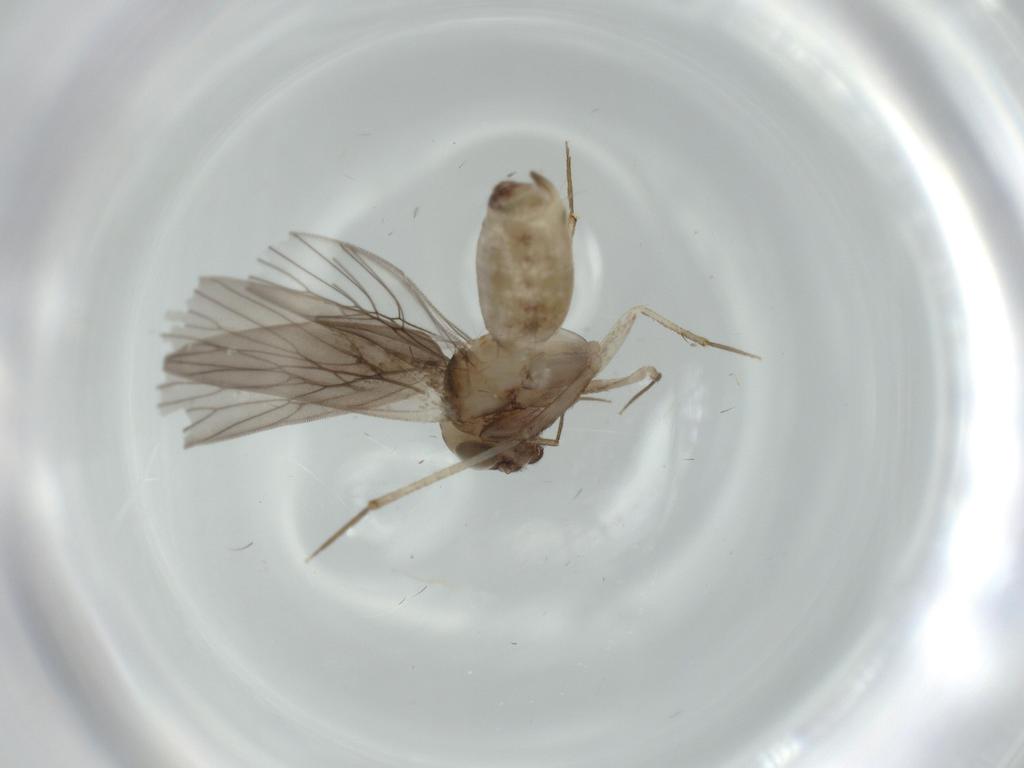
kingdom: Animalia
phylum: Arthropoda
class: Insecta
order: Psocodea
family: Lepidopsocidae
